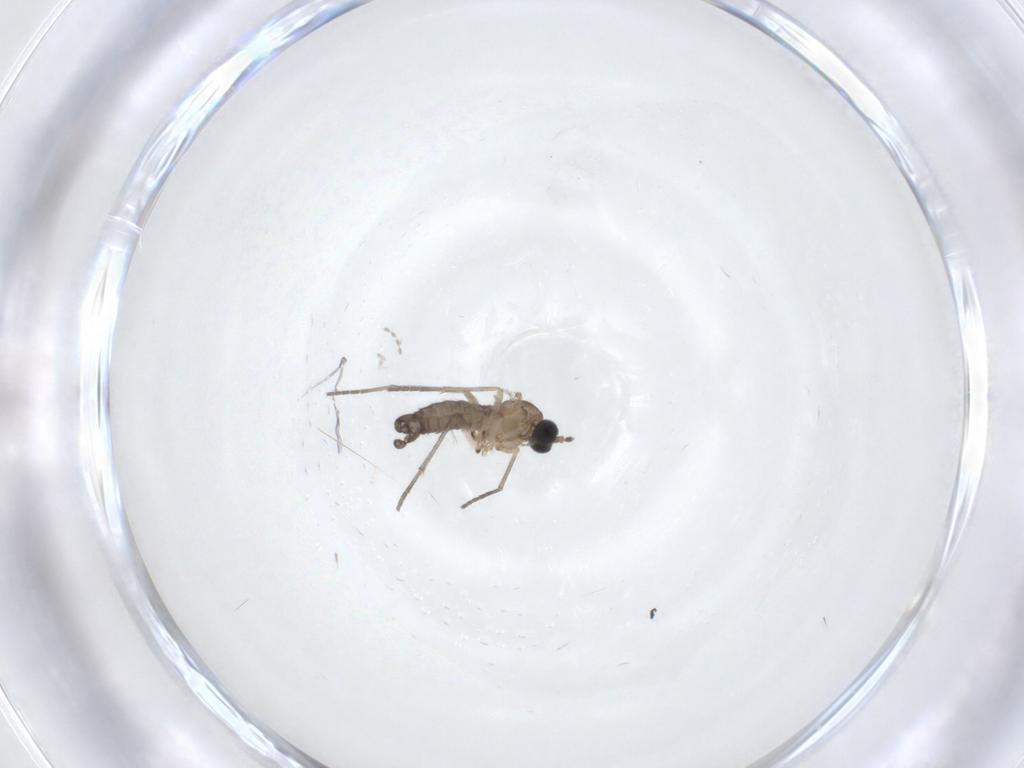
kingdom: Animalia
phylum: Arthropoda
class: Insecta
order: Diptera
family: Sciaridae
